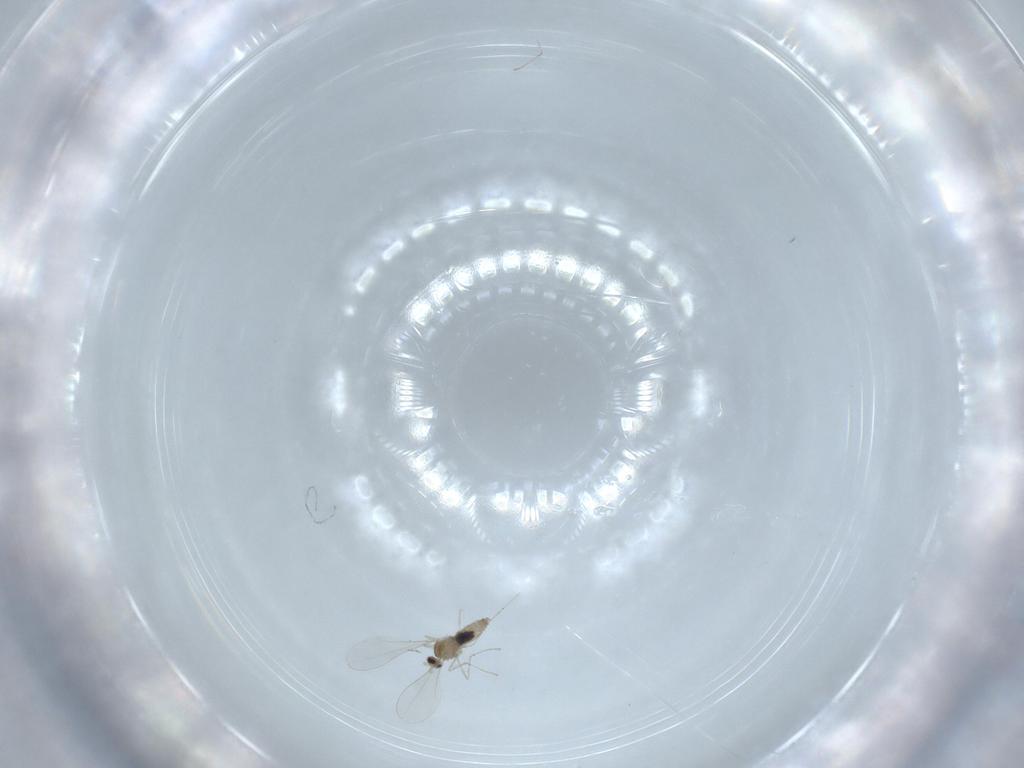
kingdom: Animalia
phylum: Arthropoda
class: Insecta
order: Diptera
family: Cecidomyiidae
